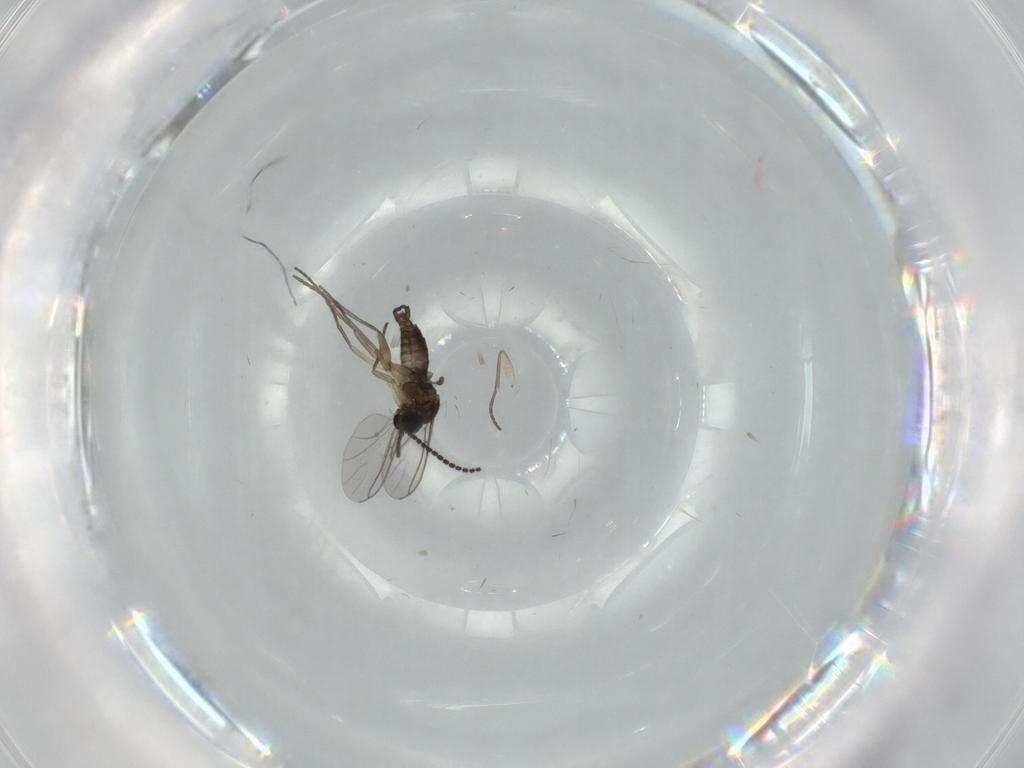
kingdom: Animalia
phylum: Arthropoda
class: Insecta
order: Diptera
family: Sciaridae
